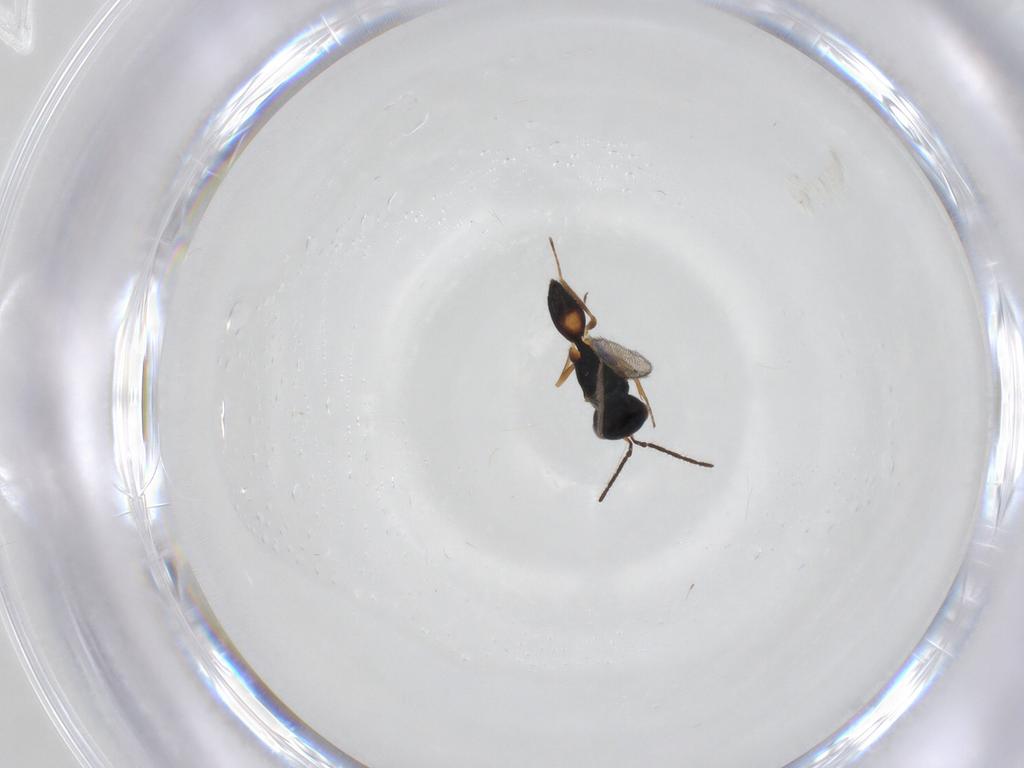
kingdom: Animalia
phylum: Arthropoda
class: Insecta
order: Hymenoptera
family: Pteromalidae
